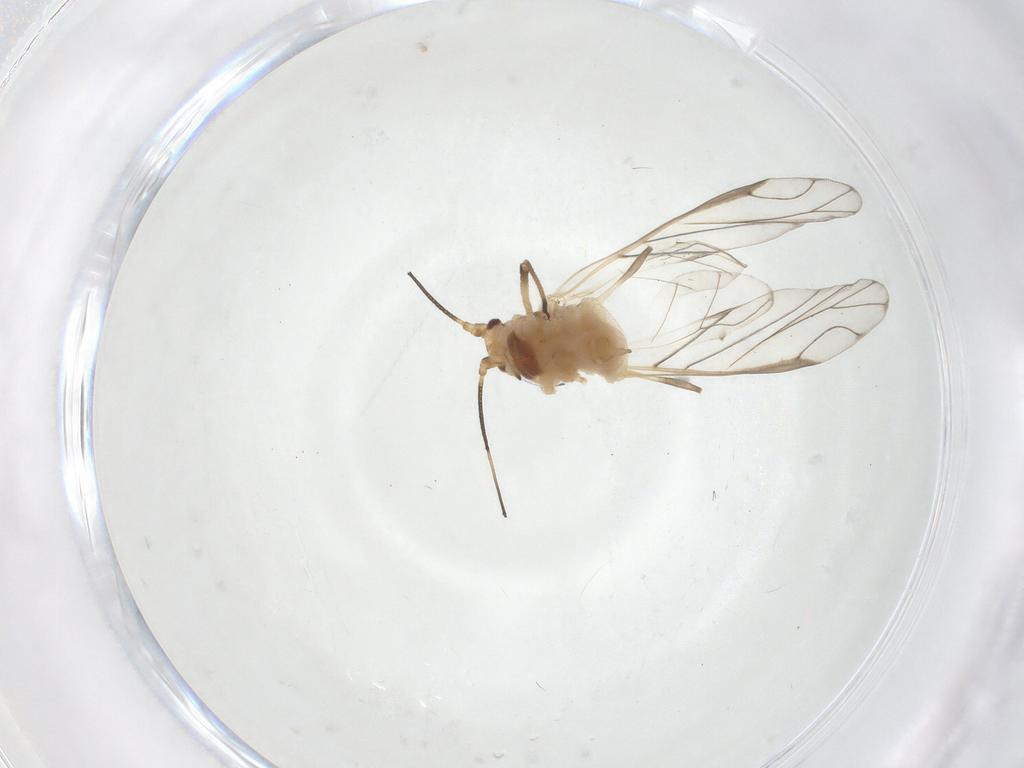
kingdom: Animalia
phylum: Arthropoda
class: Insecta
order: Hemiptera
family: Aphididae
